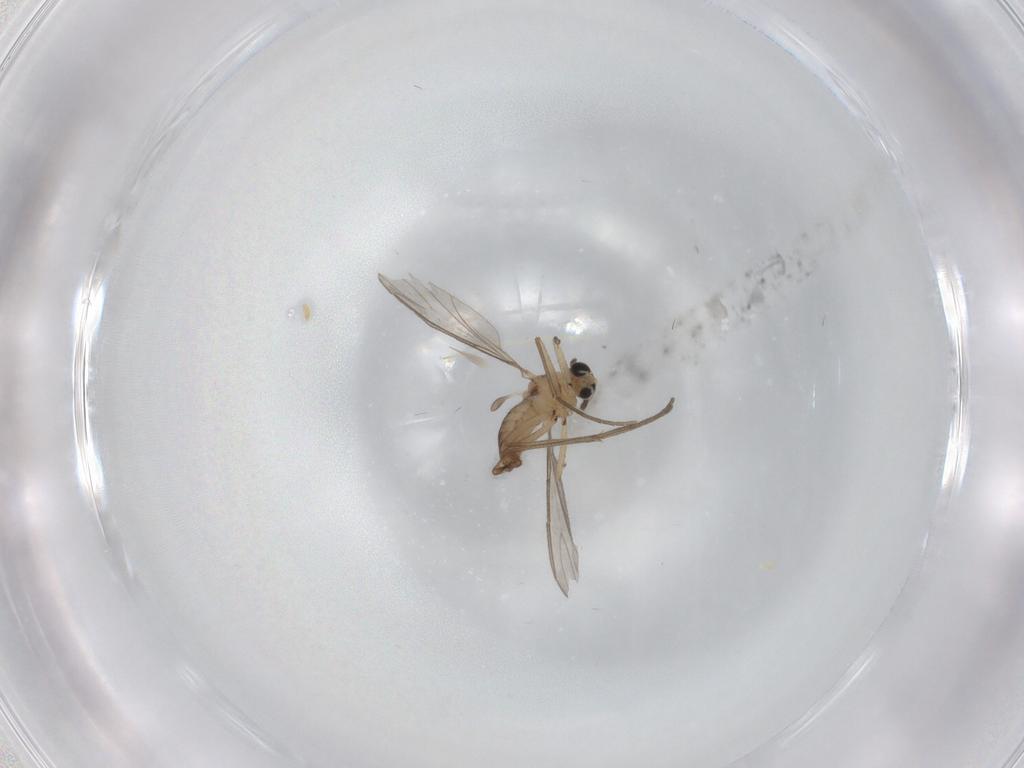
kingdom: Animalia
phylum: Arthropoda
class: Insecta
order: Diptera
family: Sciaridae
